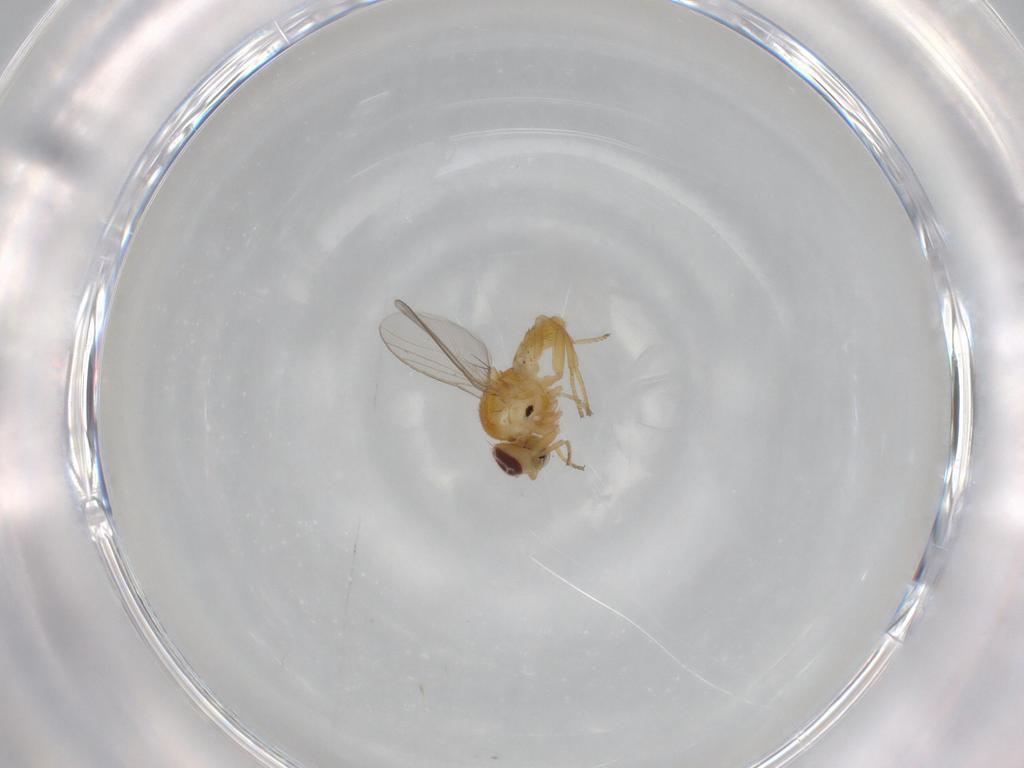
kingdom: Animalia
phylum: Arthropoda
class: Insecta
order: Diptera
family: Chloropidae
